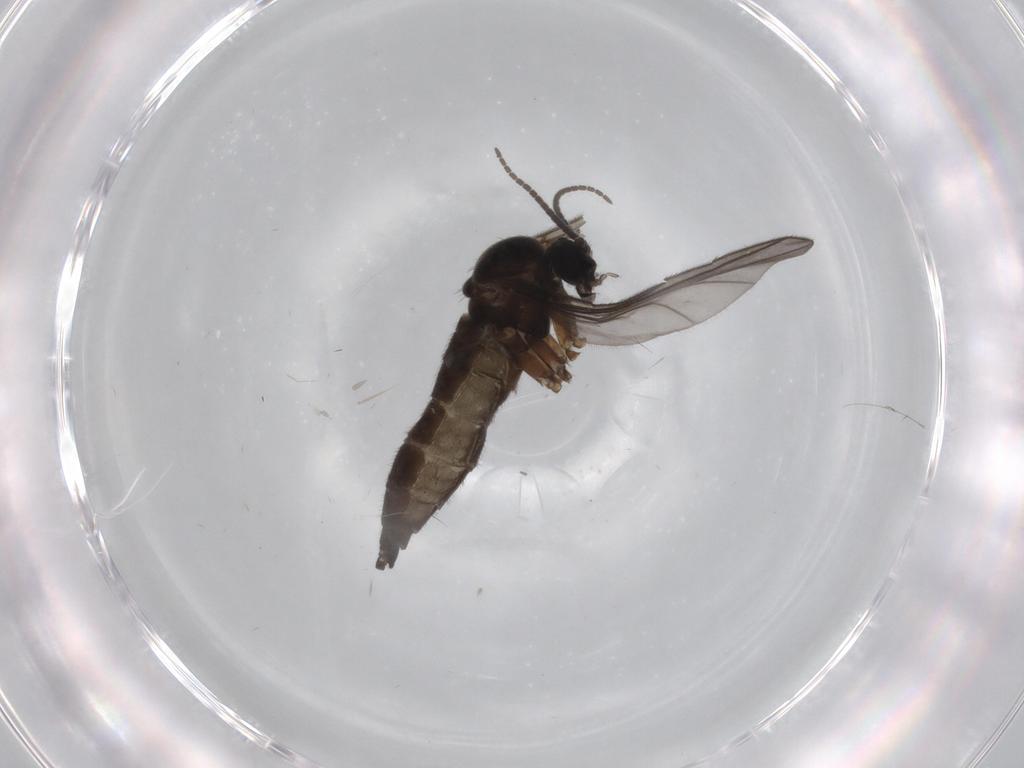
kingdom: Animalia
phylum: Arthropoda
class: Insecta
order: Diptera
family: Sciaridae
